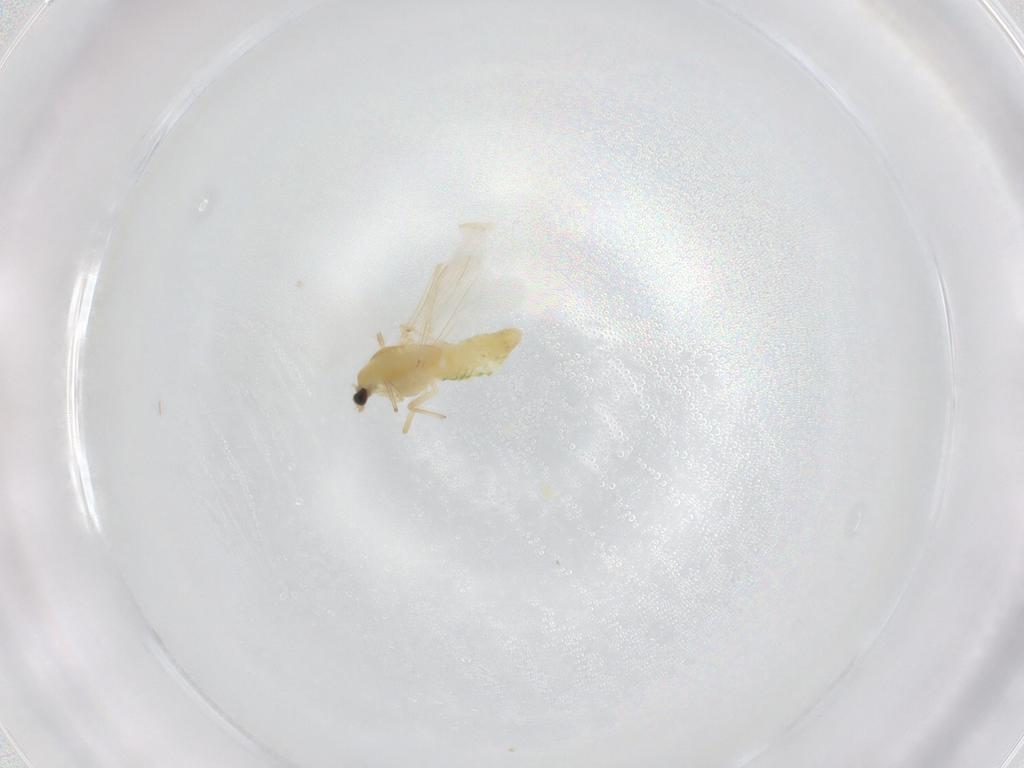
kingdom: Animalia
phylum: Arthropoda
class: Insecta
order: Diptera
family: Chironomidae
